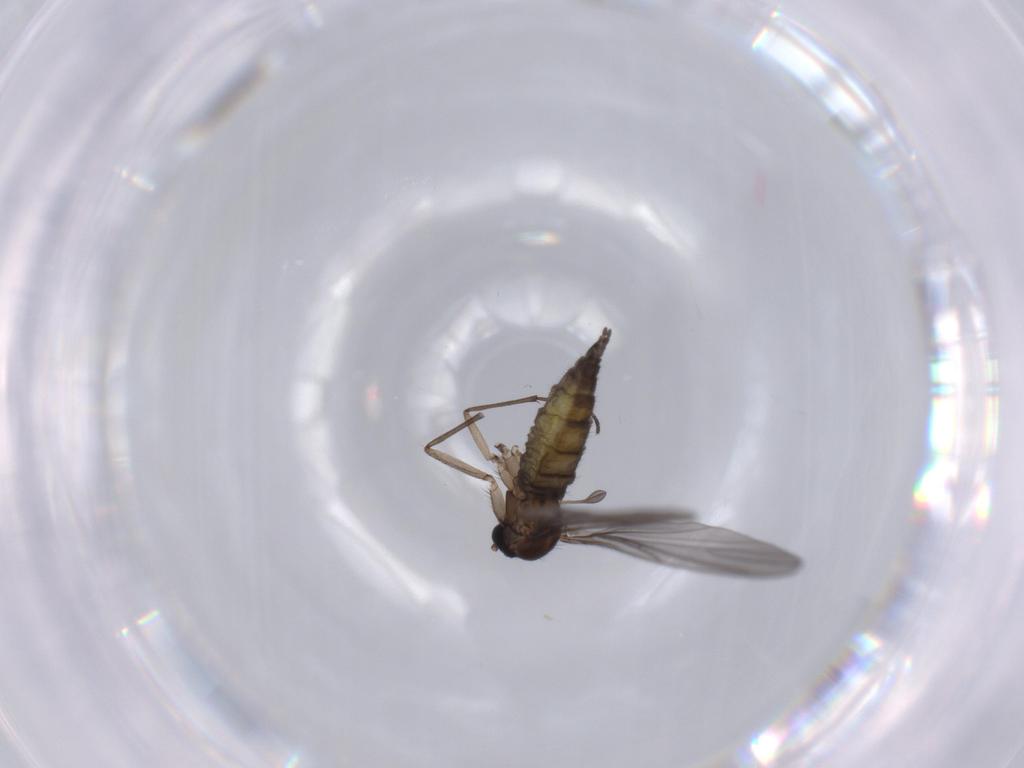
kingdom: Animalia
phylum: Arthropoda
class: Insecta
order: Diptera
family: Sciaridae
